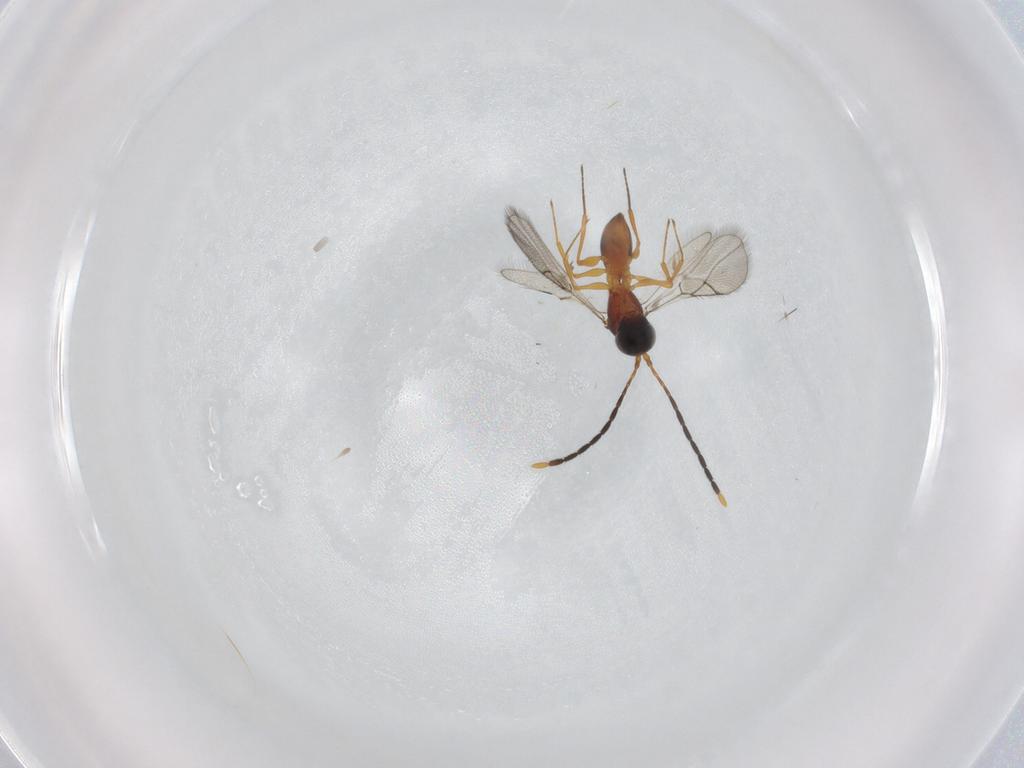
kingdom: Animalia
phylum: Arthropoda
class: Insecta
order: Hymenoptera
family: Figitidae
